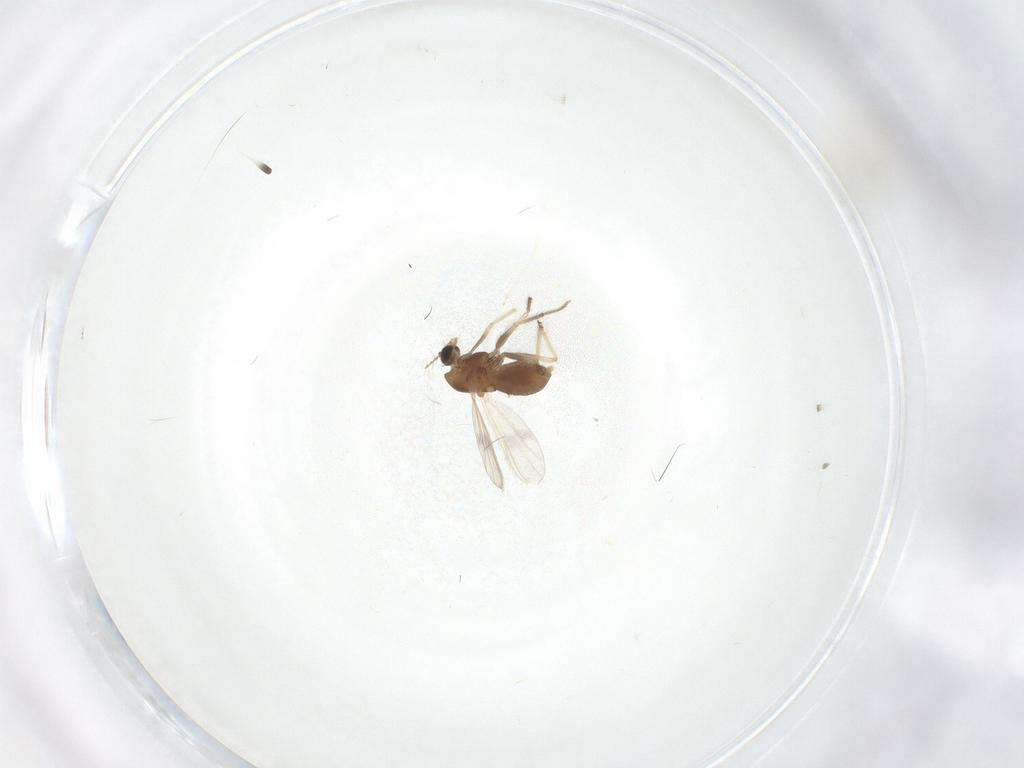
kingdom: Animalia
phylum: Arthropoda
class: Insecta
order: Diptera
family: Chironomidae
